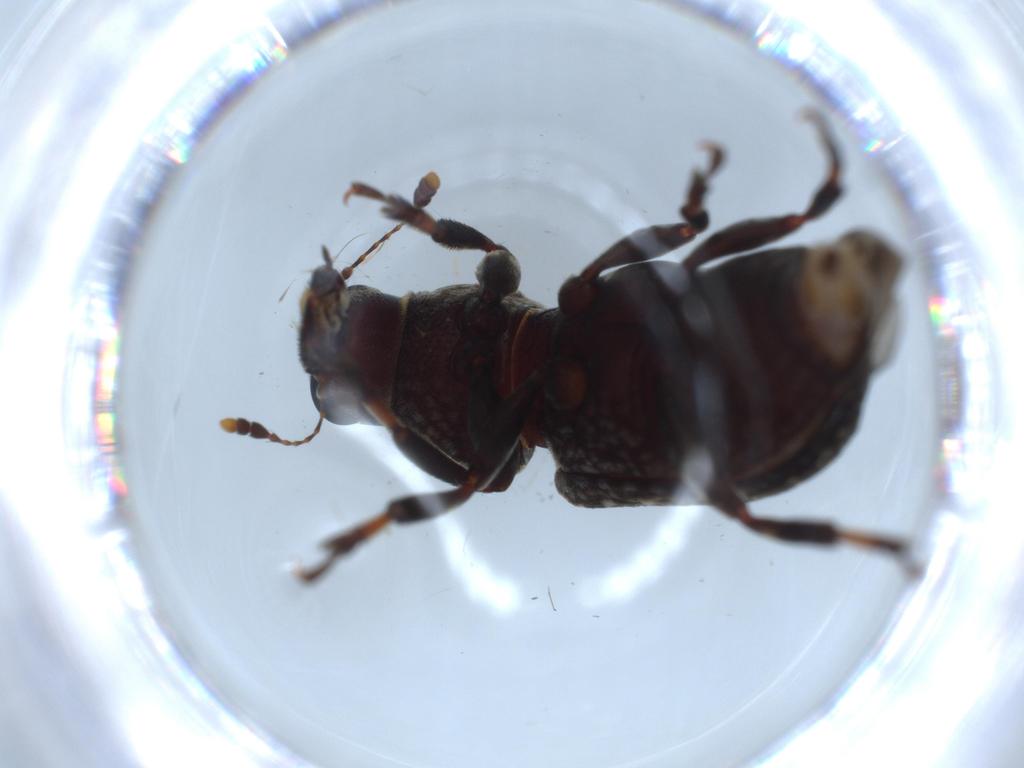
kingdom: Animalia
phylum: Arthropoda
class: Insecta
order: Coleoptera
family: Anthribidae
